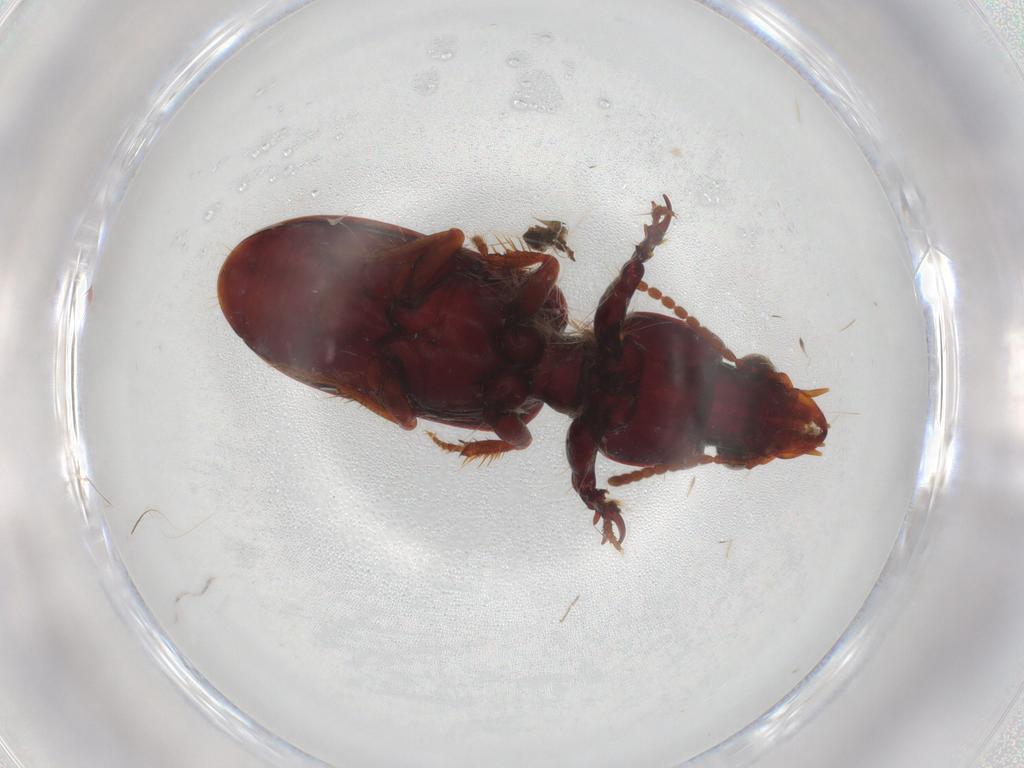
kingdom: Animalia
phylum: Arthropoda
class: Insecta
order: Coleoptera
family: Carabidae
